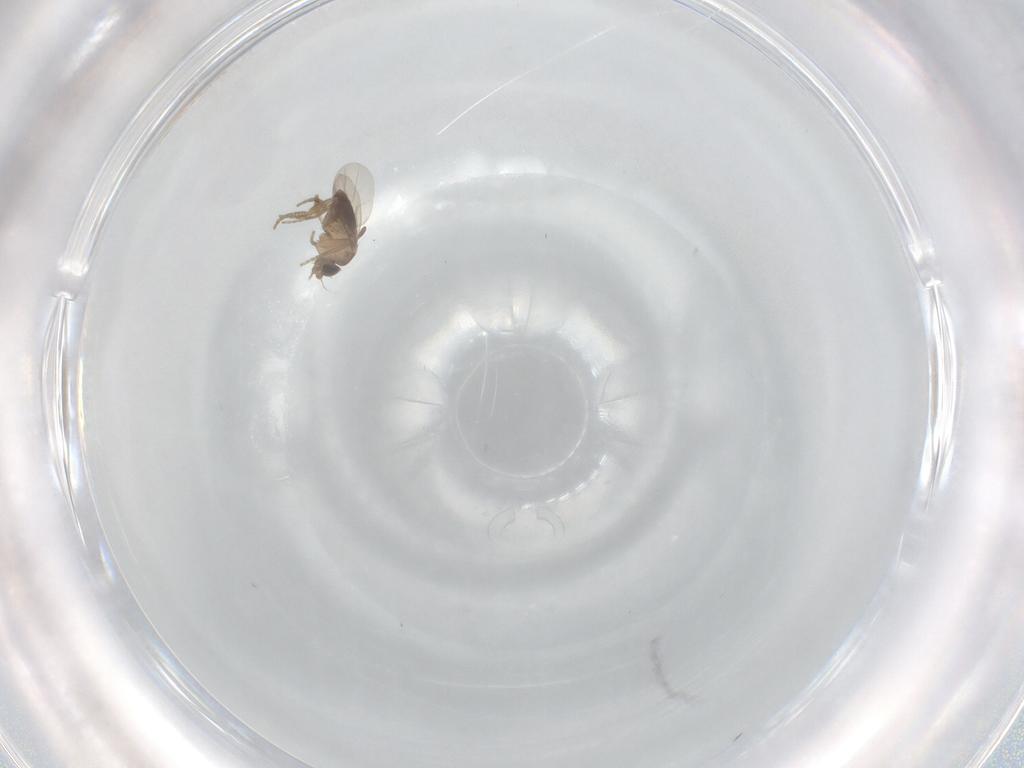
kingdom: Animalia
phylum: Arthropoda
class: Insecta
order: Diptera
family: Phoridae
